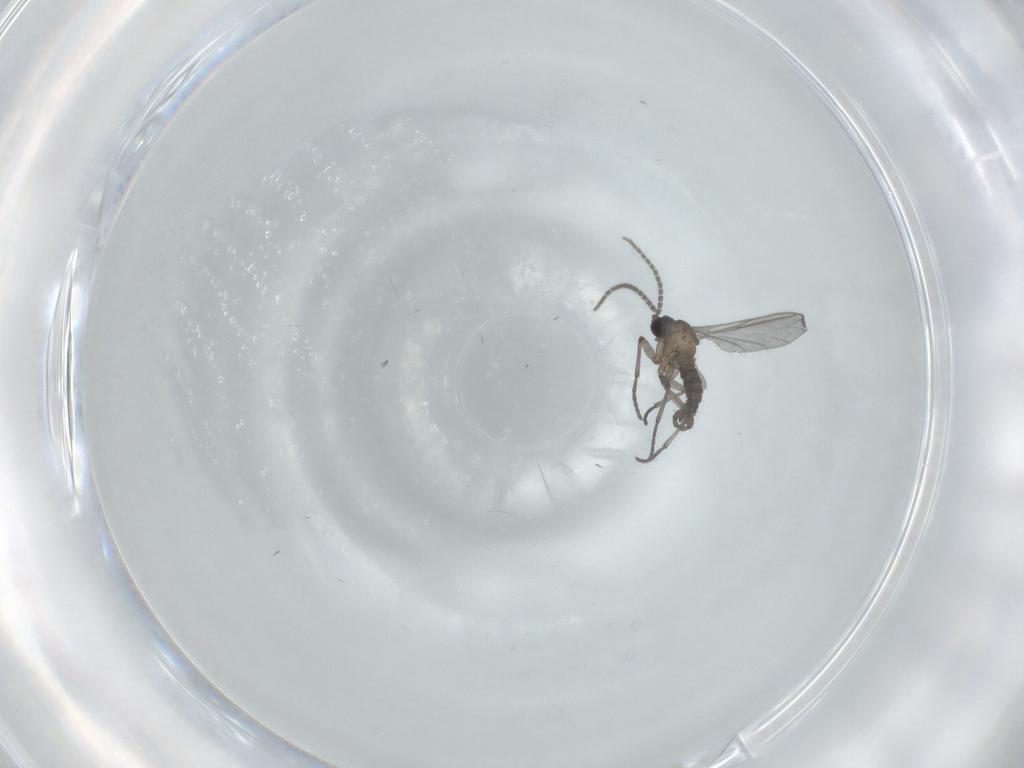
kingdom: Animalia
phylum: Arthropoda
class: Insecta
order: Diptera
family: Sciaridae
